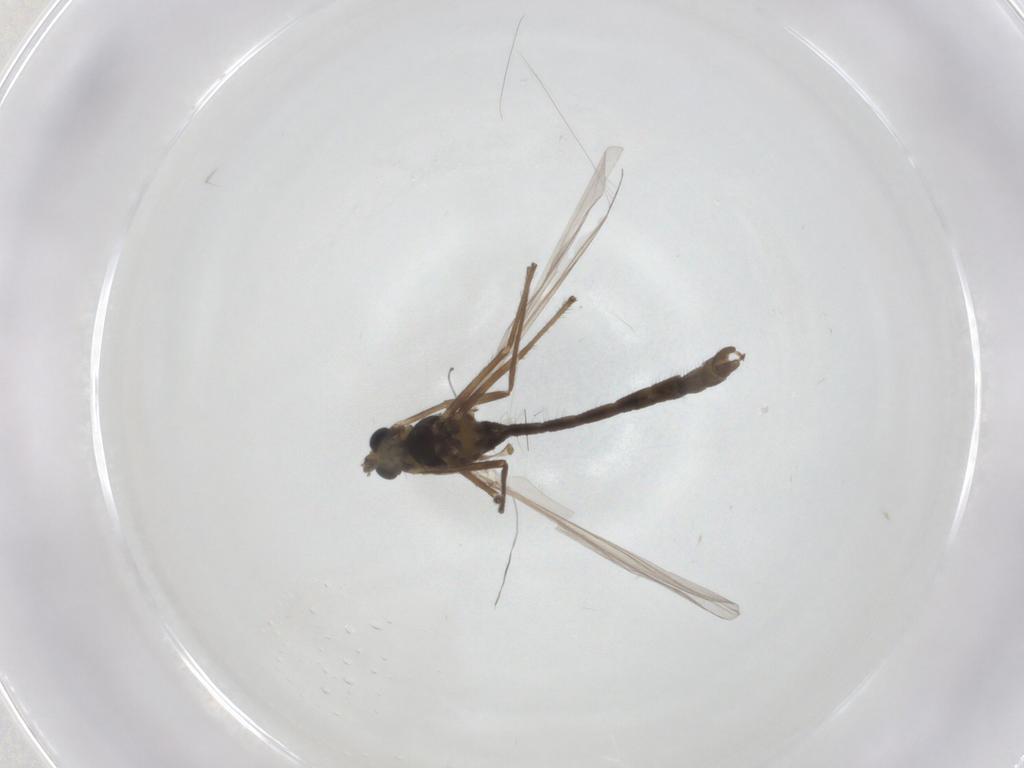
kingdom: Animalia
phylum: Arthropoda
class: Insecta
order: Diptera
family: Chironomidae
